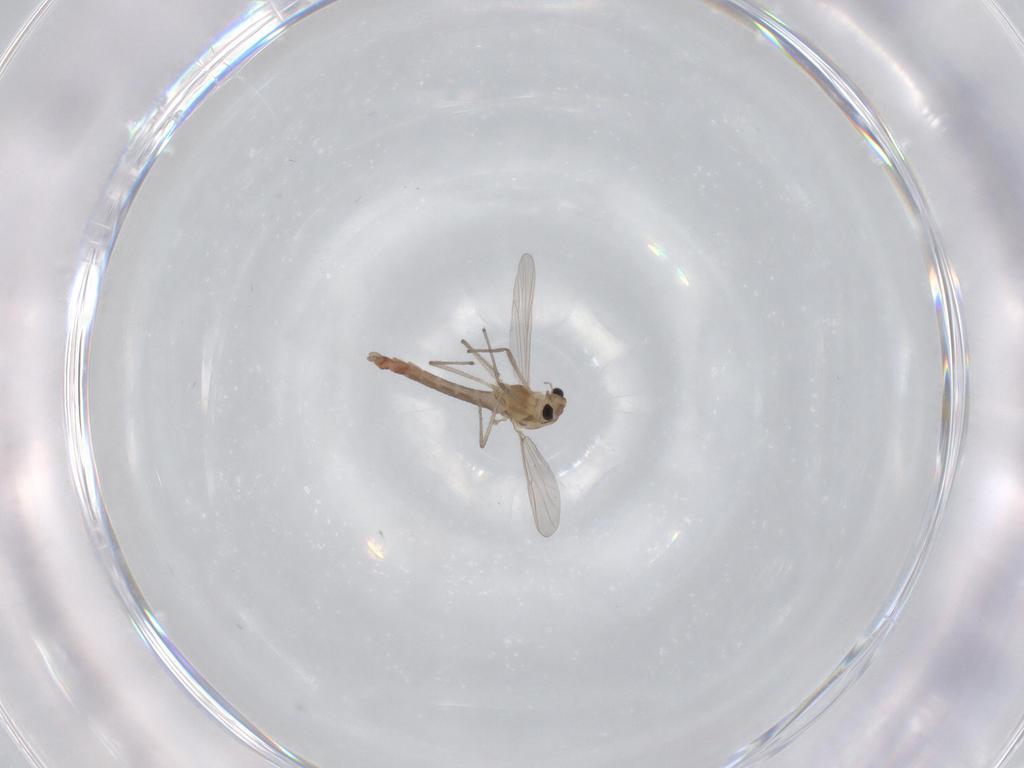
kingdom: Animalia
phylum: Arthropoda
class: Insecta
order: Diptera
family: Chironomidae
